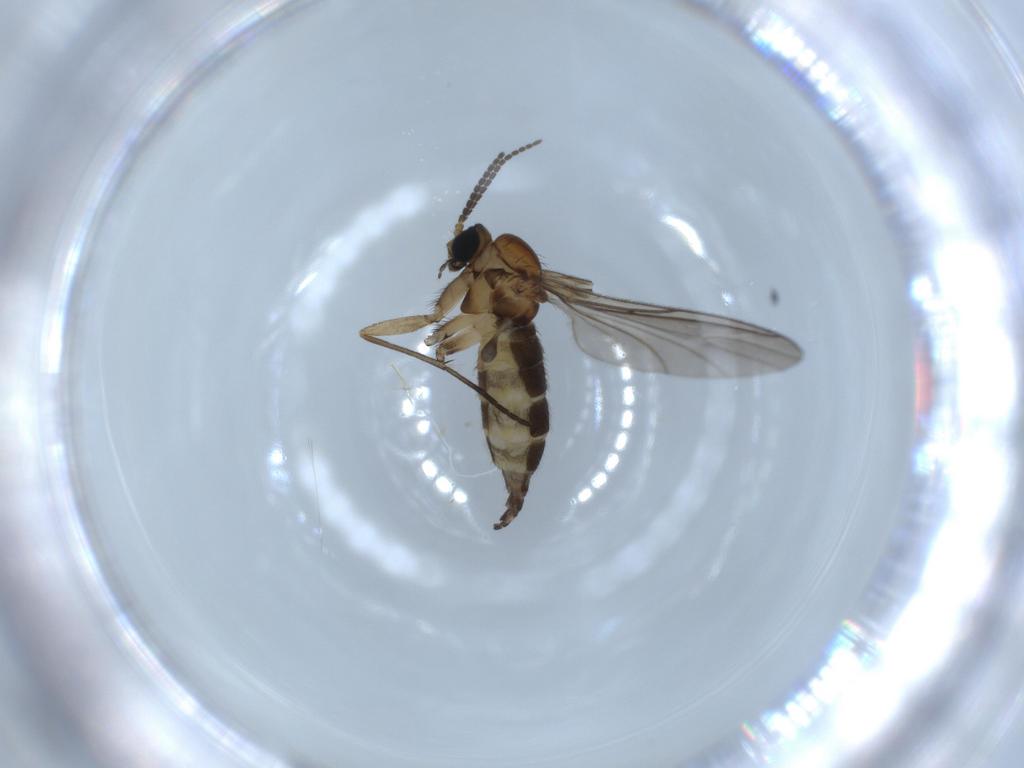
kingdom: Animalia
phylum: Arthropoda
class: Insecta
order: Diptera
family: Sciaridae
